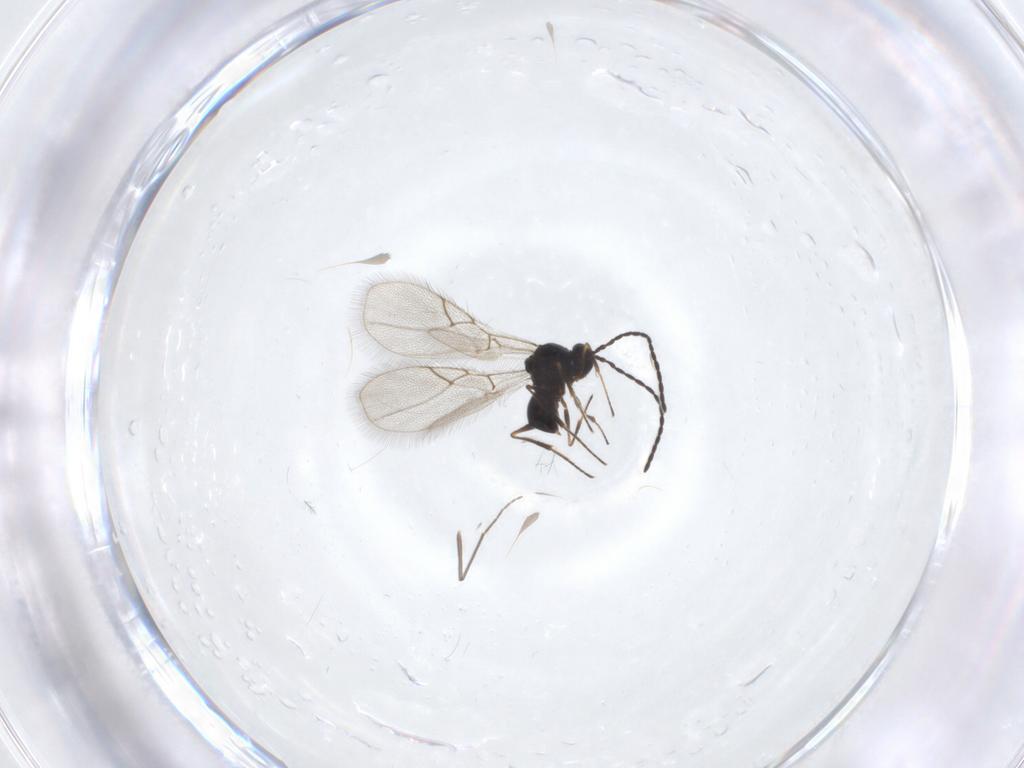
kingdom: Animalia
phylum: Arthropoda
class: Insecta
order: Hymenoptera
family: Figitidae
